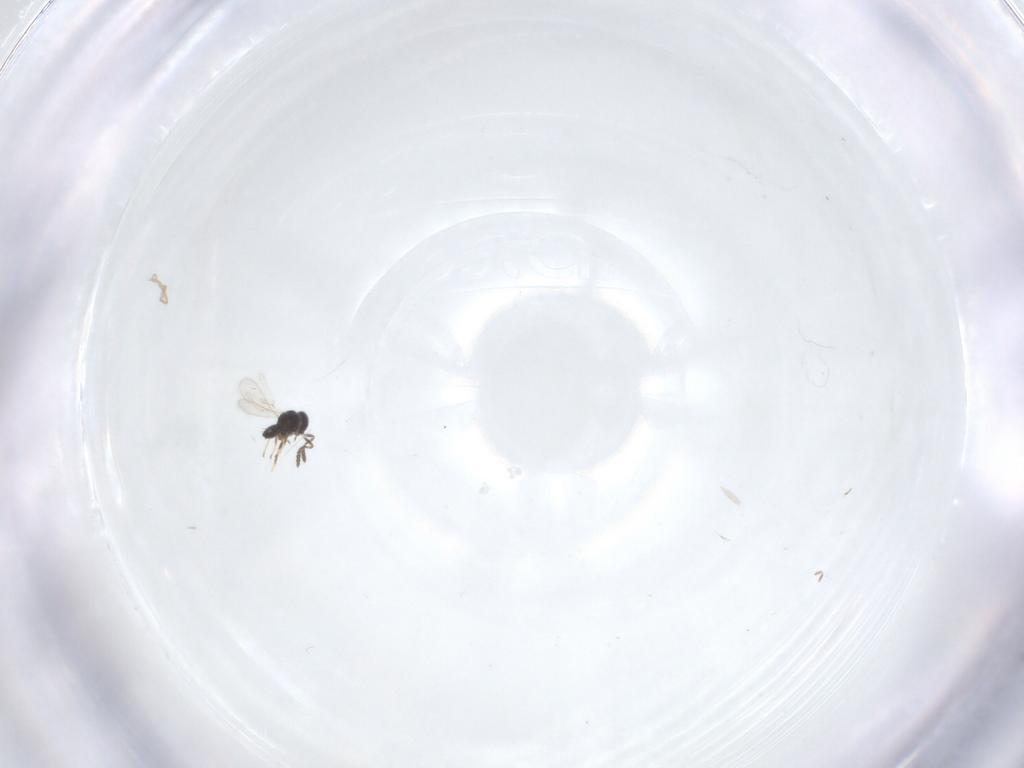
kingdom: Animalia
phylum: Arthropoda
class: Insecta
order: Hymenoptera
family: Scelionidae
